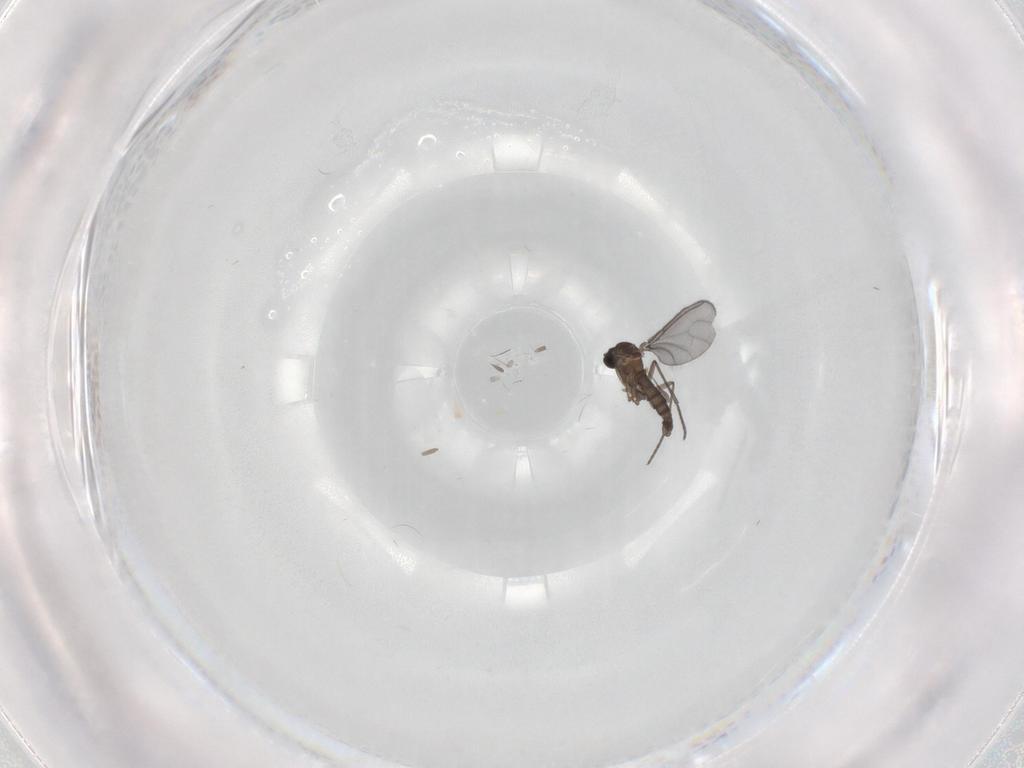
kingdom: Animalia
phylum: Arthropoda
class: Insecta
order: Diptera
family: Sciaridae
